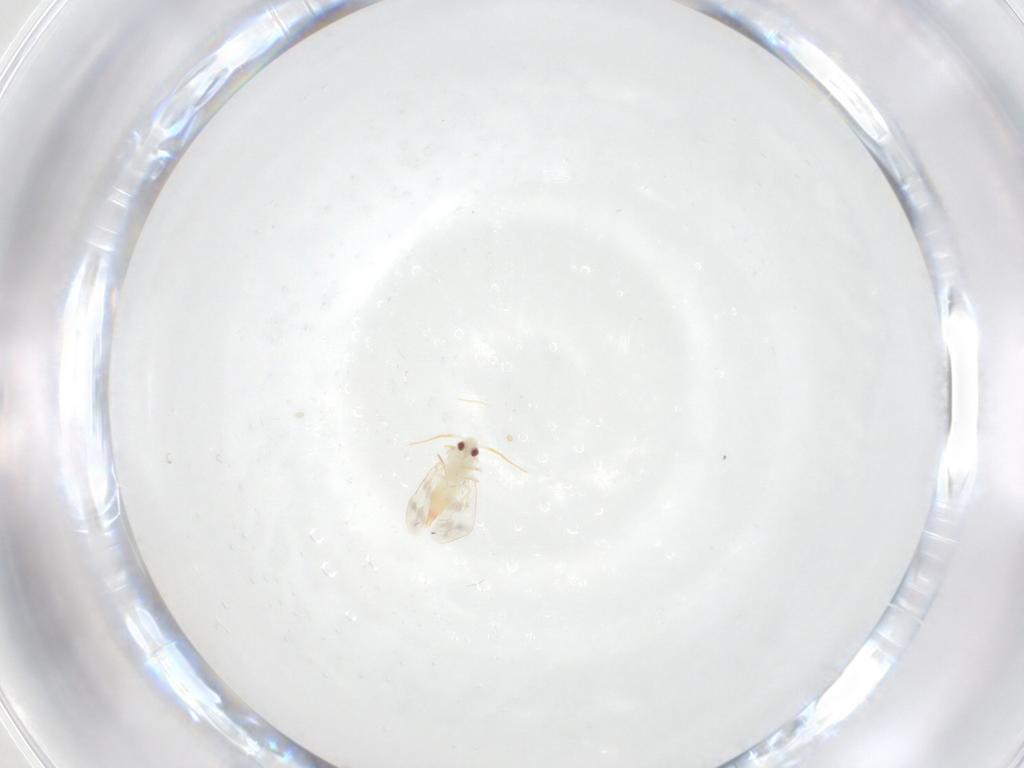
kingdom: Animalia
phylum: Arthropoda
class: Insecta
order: Hemiptera
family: Aleyrodidae
